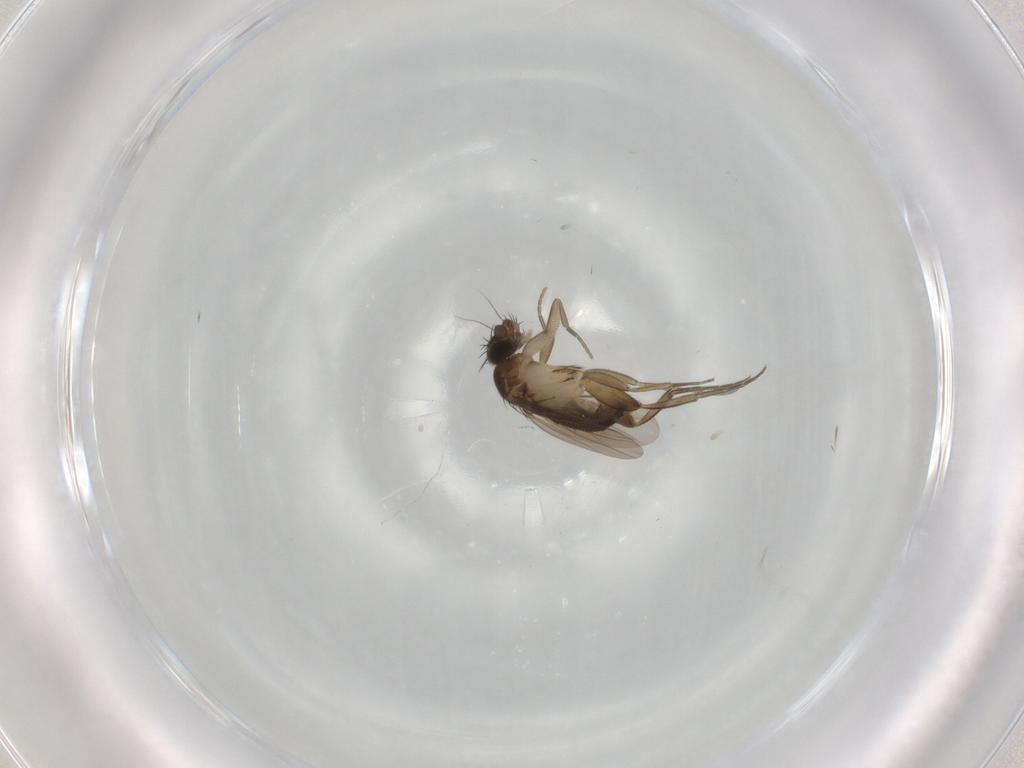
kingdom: Animalia
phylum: Arthropoda
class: Insecta
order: Diptera
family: Phoridae
